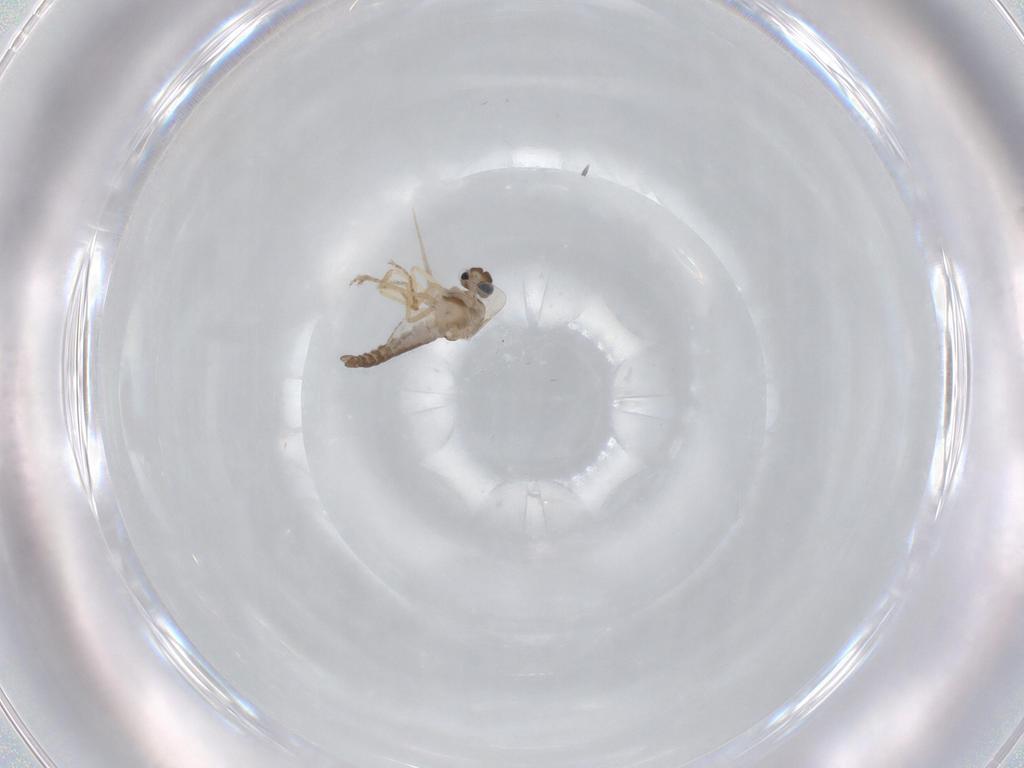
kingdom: Animalia
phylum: Arthropoda
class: Insecta
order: Diptera
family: Ceratopogonidae
